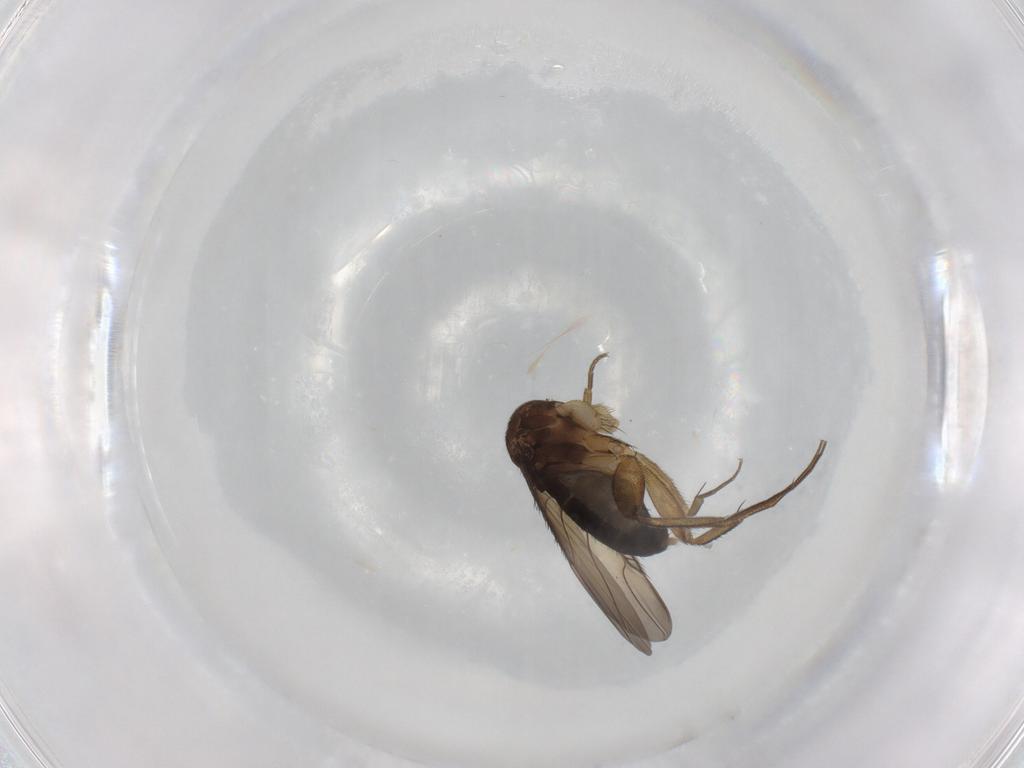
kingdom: Animalia
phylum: Arthropoda
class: Insecta
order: Diptera
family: Phoridae
